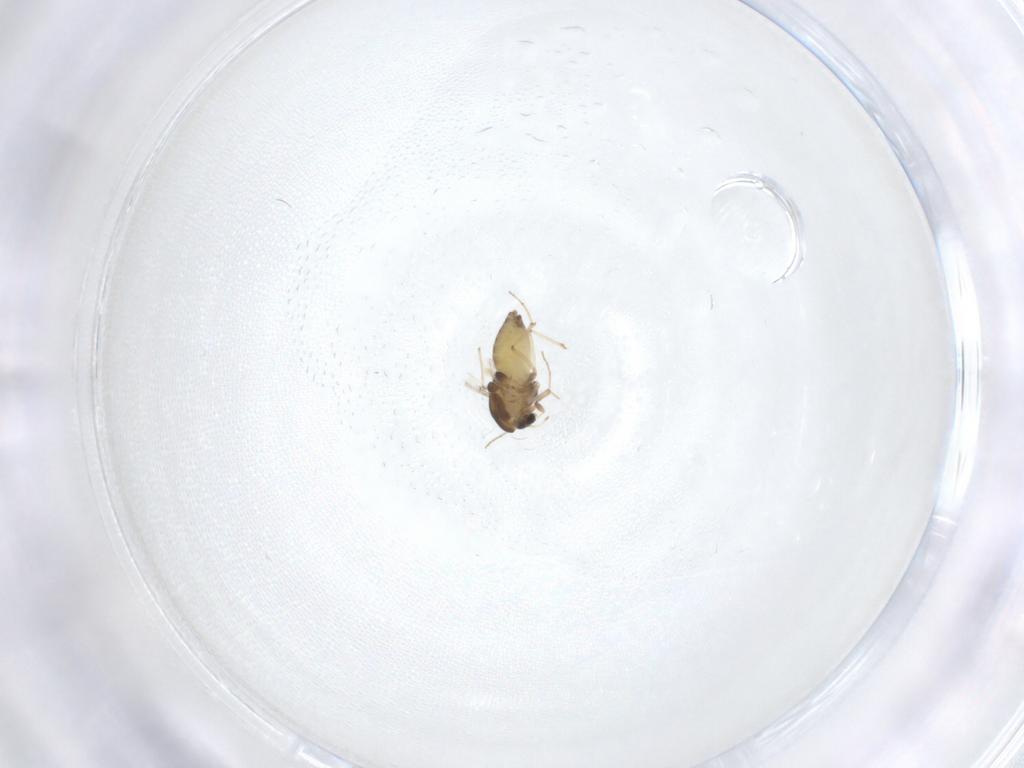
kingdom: Animalia
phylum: Arthropoda
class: Insecta
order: Diptera
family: Chironomidae
